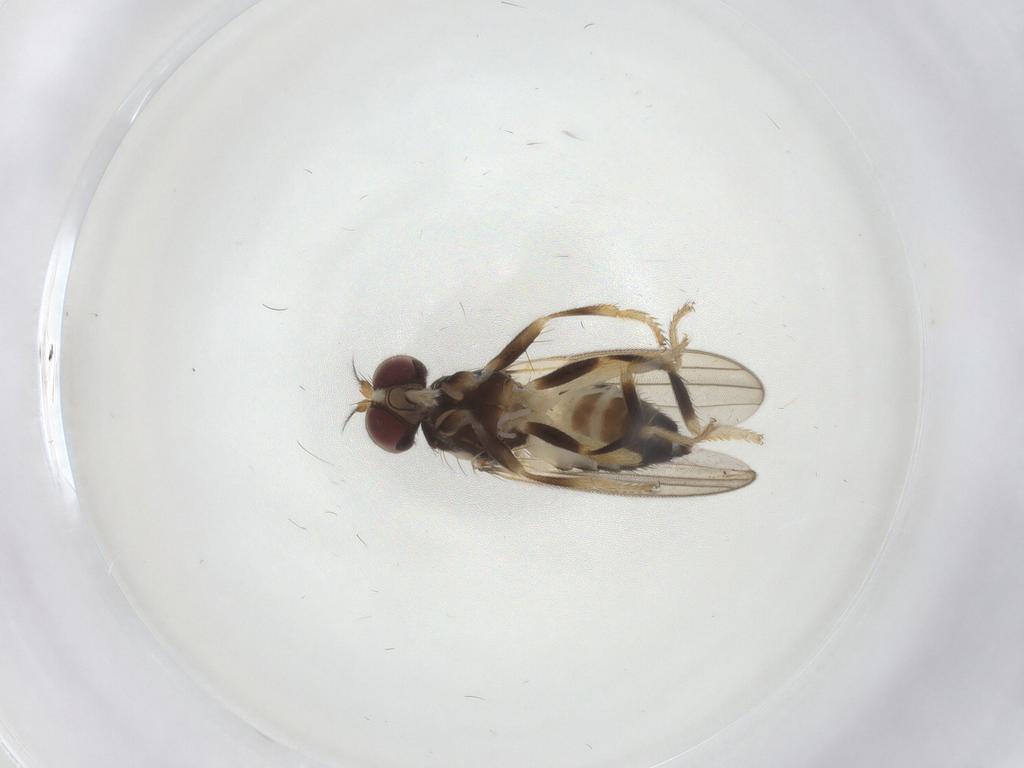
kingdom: Animalia
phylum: Arthropoda
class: Insecta
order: Diptera
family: Periscelididae
